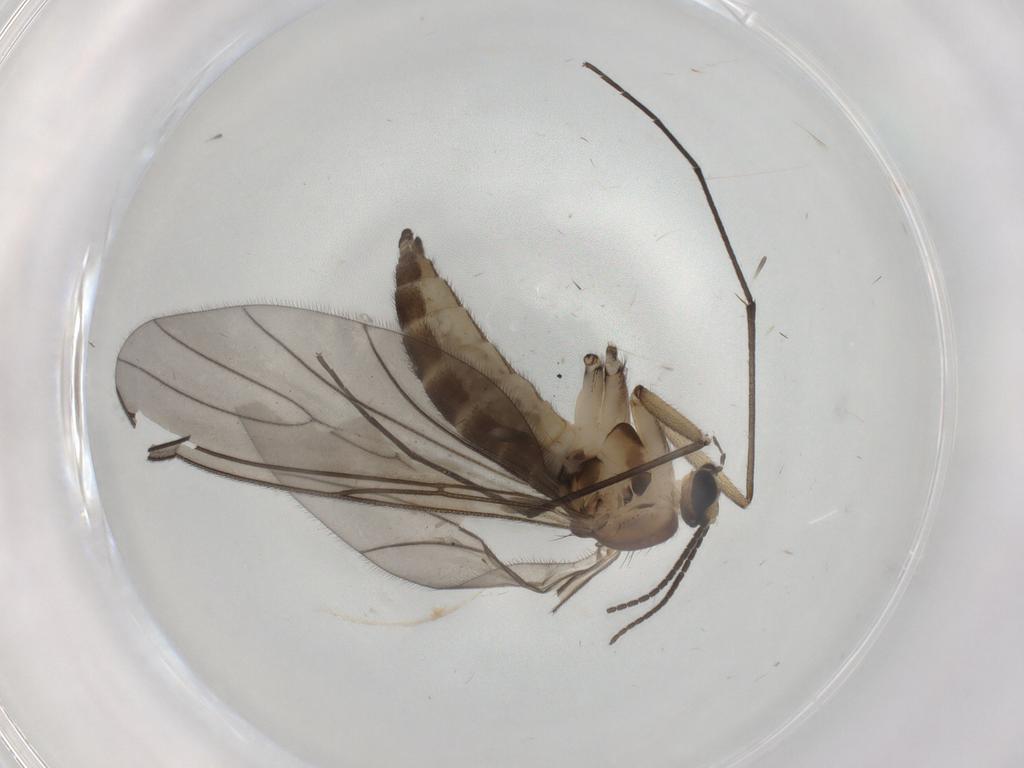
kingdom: Animalia
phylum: Arthropoda
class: Insecta
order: Diptera
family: Sciaridae
